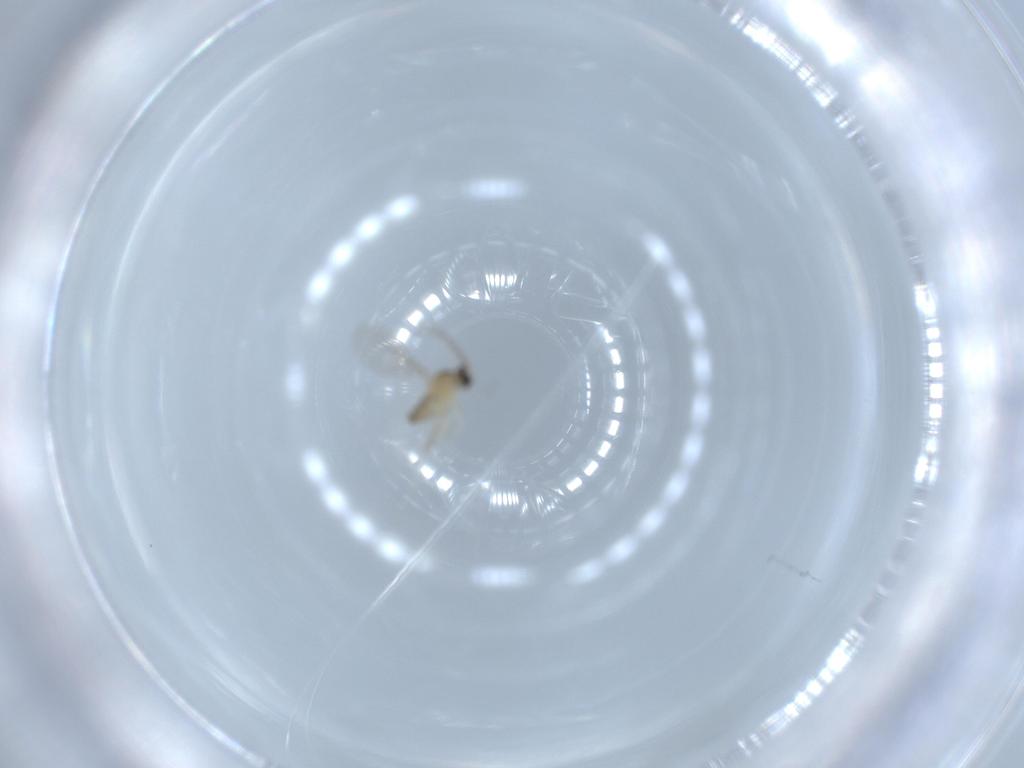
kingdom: Animalia
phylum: Arthropoda
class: Insecta
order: Diptera
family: Cecidomyiidae
